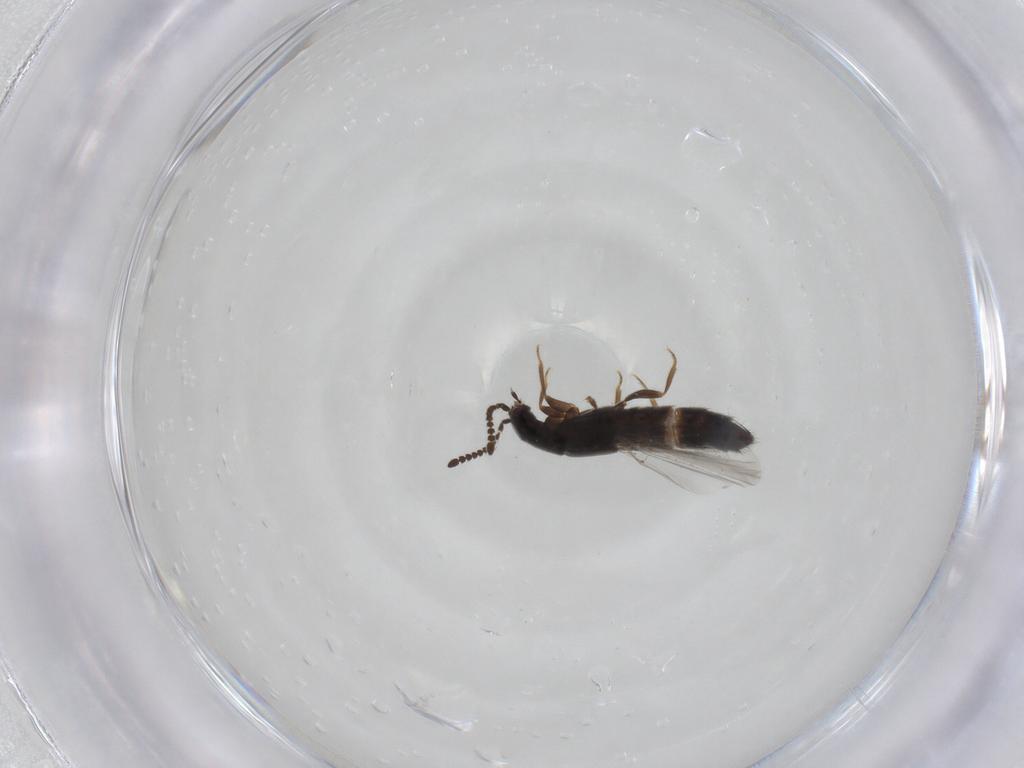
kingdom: Animalia
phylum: Arthropoda
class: Insecta
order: Coleoptera
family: Staphylinidae
